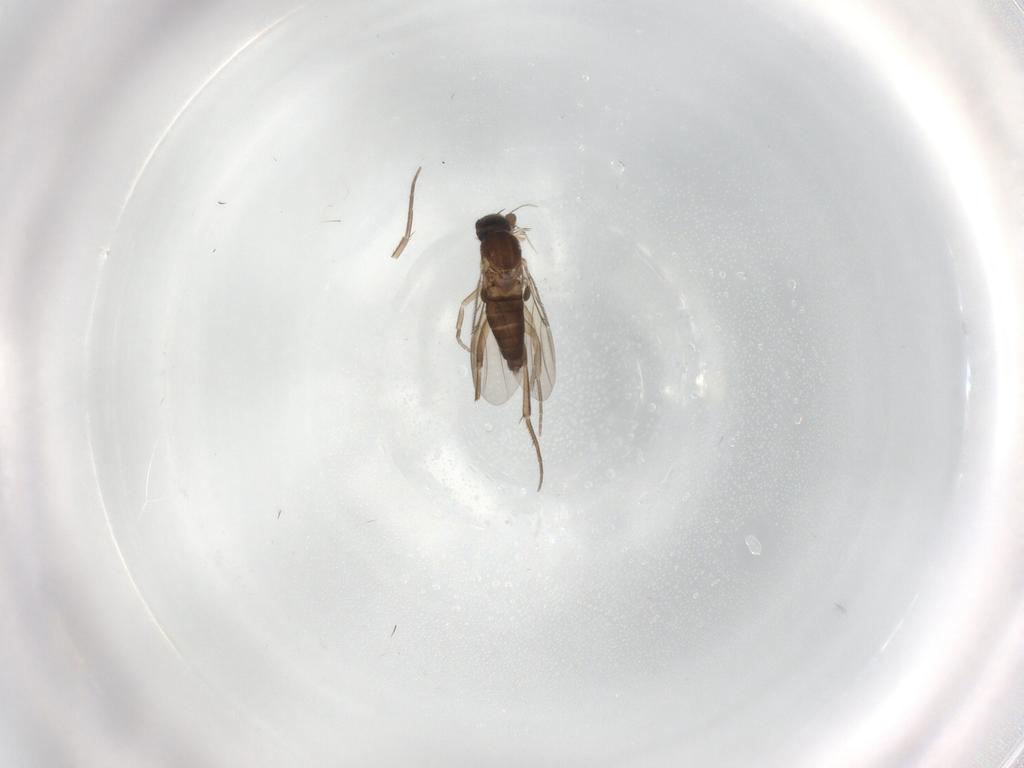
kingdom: Animalia
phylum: Arthropoda
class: Insecta
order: Diptera
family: Phoridae
